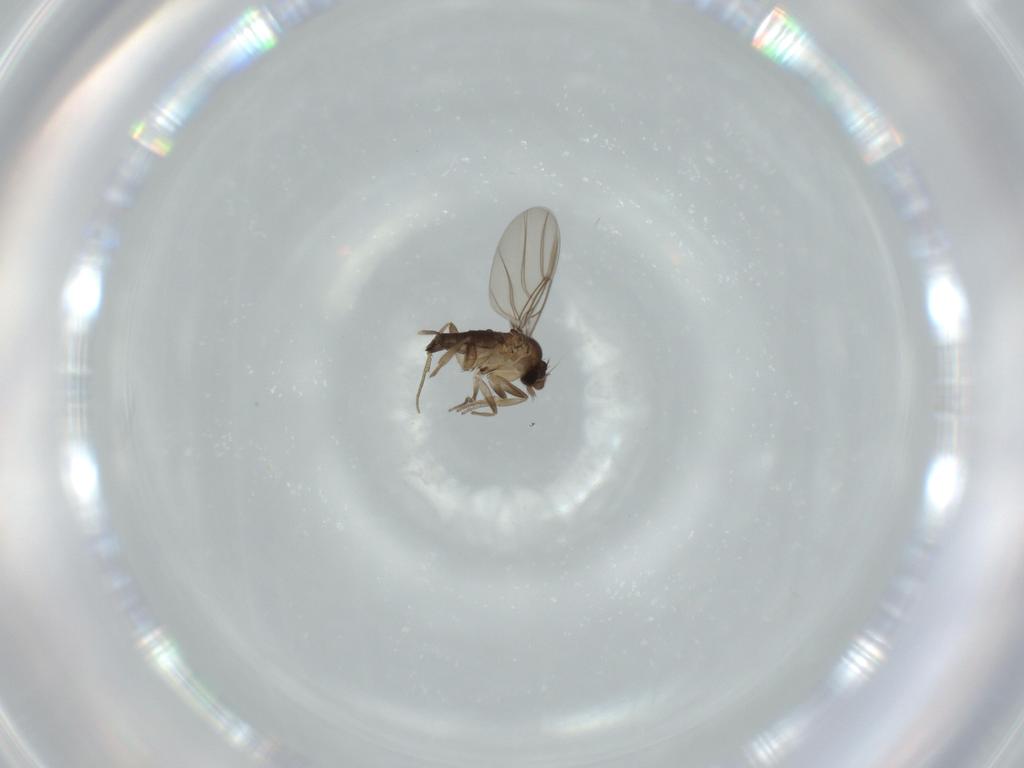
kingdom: Animalia
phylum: Arthropoda
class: Insecta
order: Diptera
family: Phoridae
